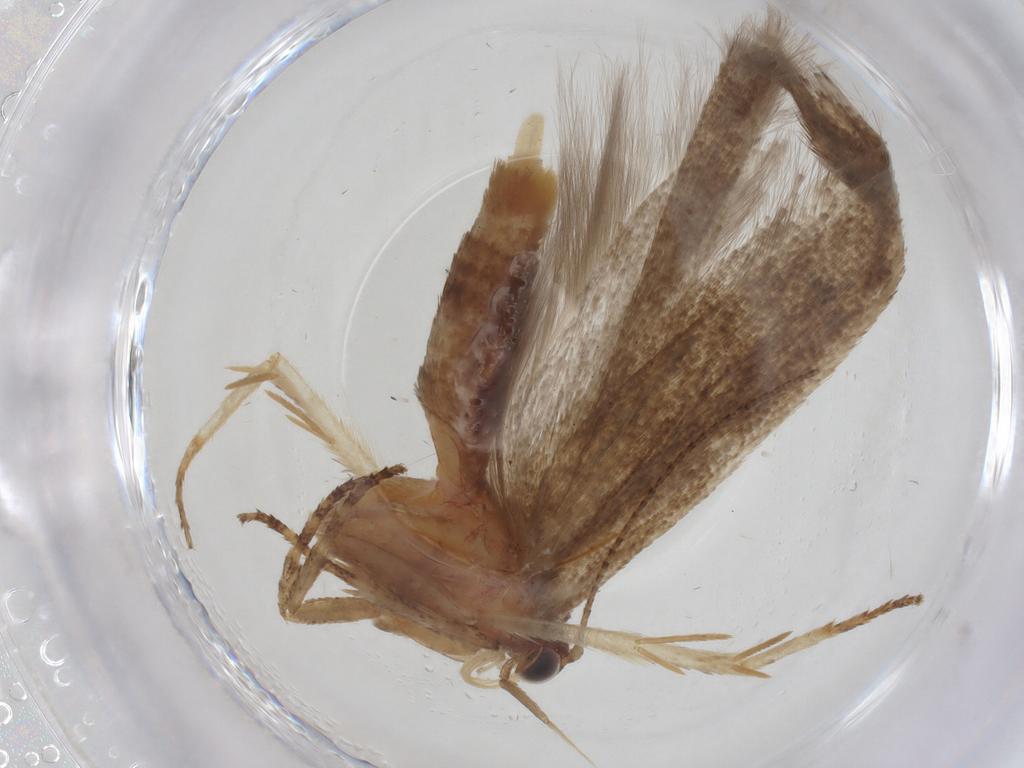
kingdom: Animalia
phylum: Arthropoda
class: Insecta
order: Lepidoptera
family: Gelechiidae
